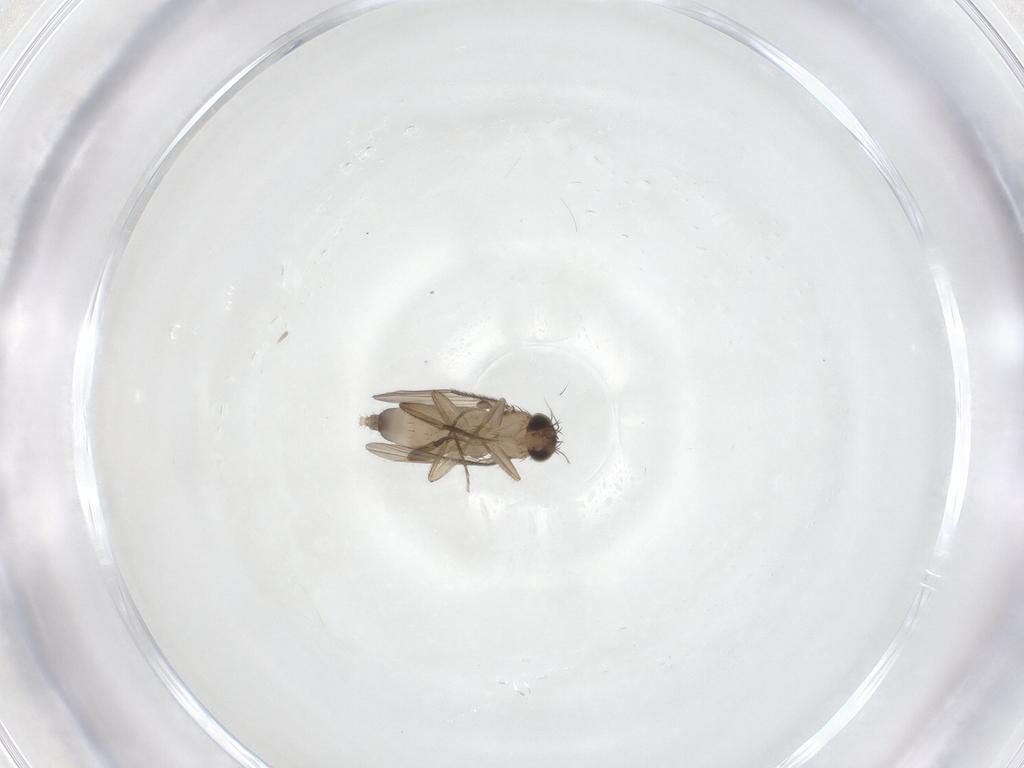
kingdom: Animalia
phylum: Arthropoda
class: Insecta
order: Diptera
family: Phoridae
